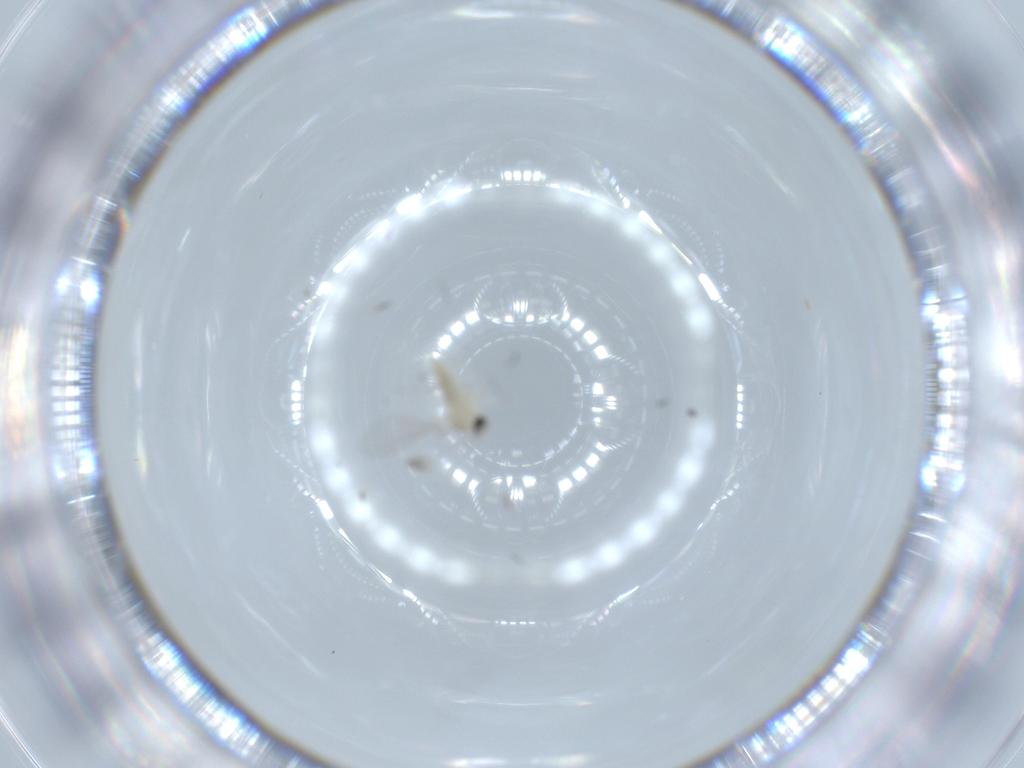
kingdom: Animalia
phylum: Arthropoda
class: Insecta
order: Diptera
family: Cecidomyiidae
